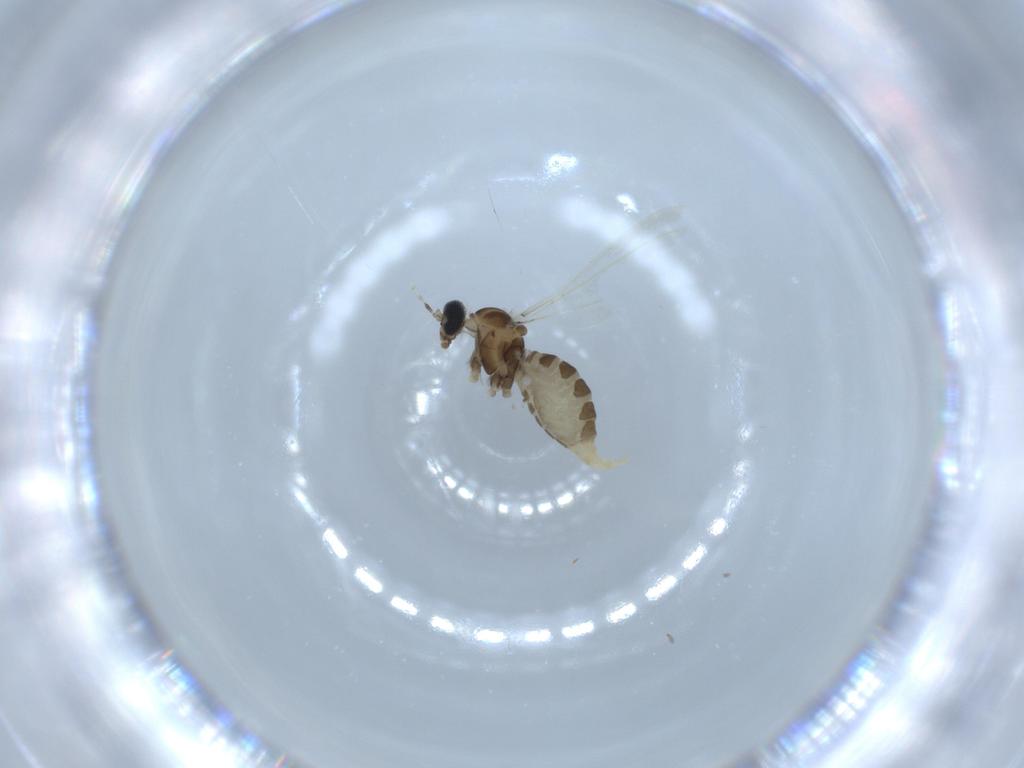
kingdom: Animalia
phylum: Arthropoda
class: Insecta
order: Diptera
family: Cecidomyiidae
